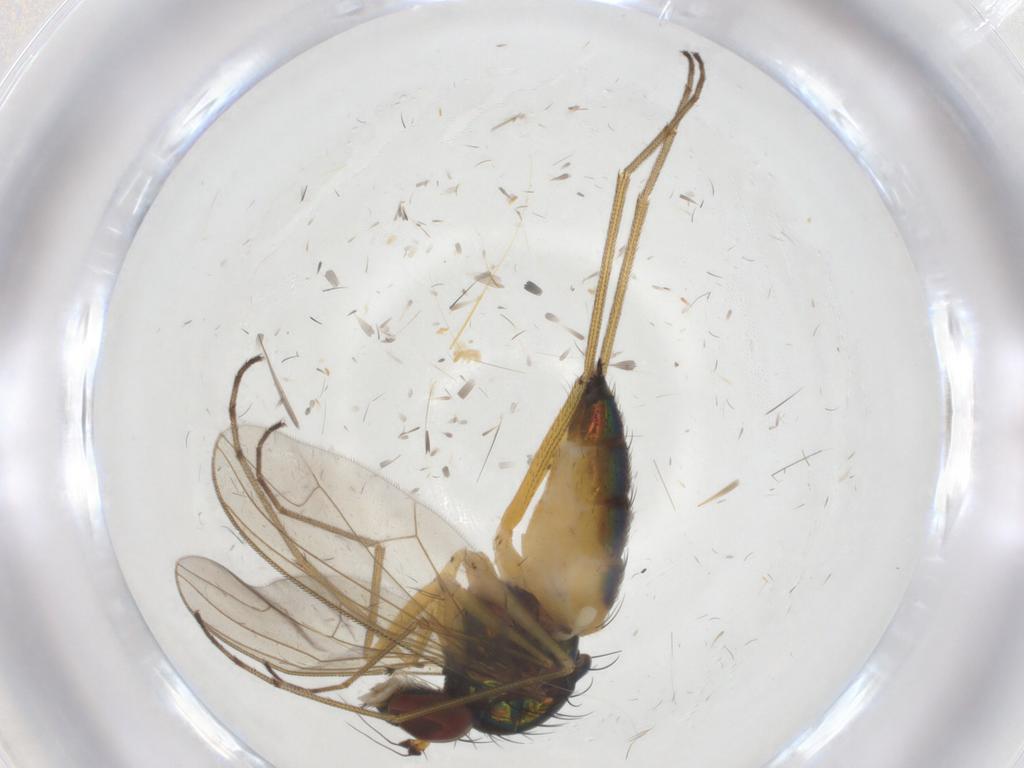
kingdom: Animalia
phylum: Arthropoda
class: Insecta
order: Diptera
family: Dolichopodidae
